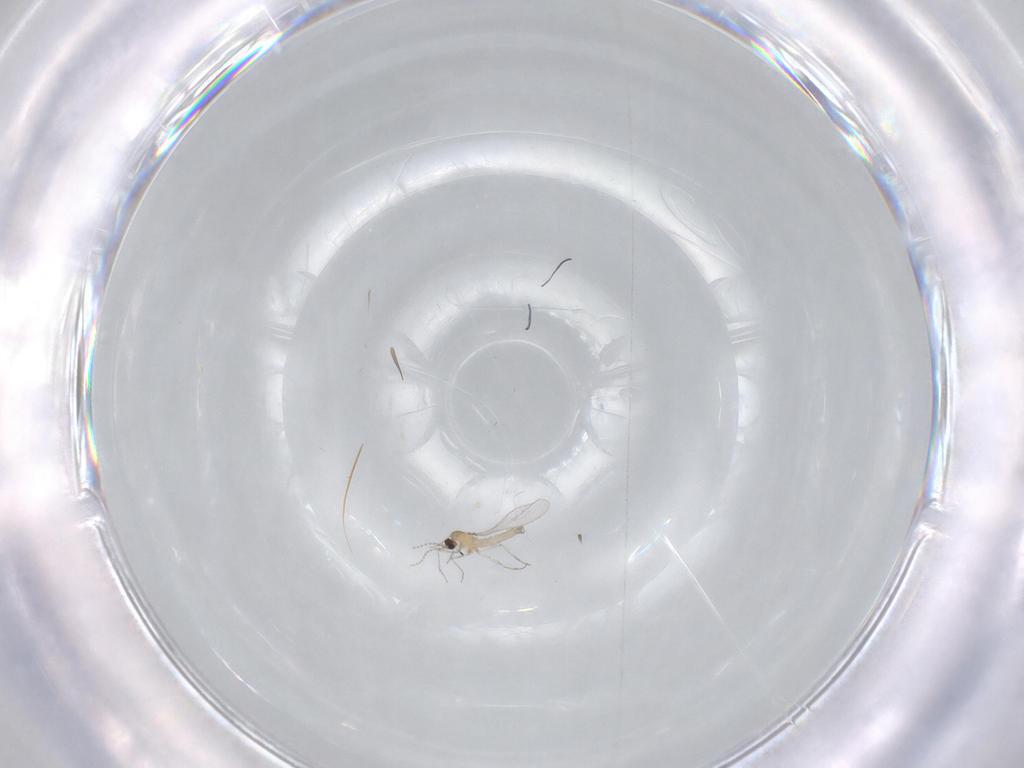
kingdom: Animalia
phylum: Arthropoda
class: Insecta
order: Diptera
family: Cecidomyiidae
